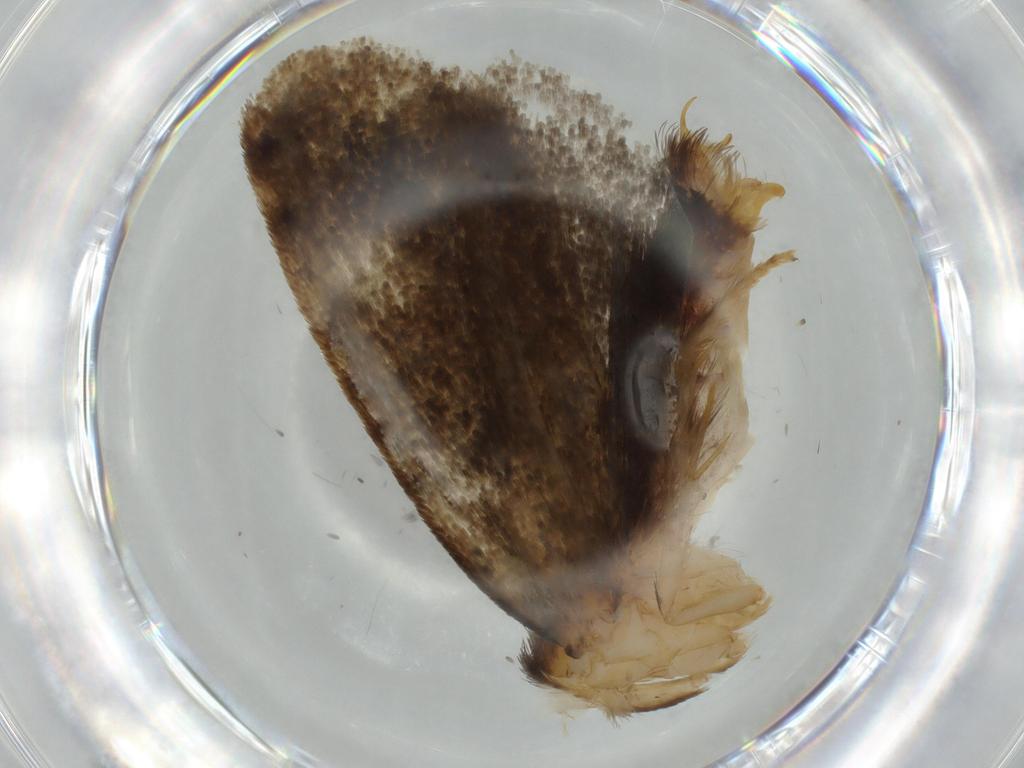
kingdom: Animalia
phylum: Arthropoda
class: Insecta
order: Lepidoptera
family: Tineidae
